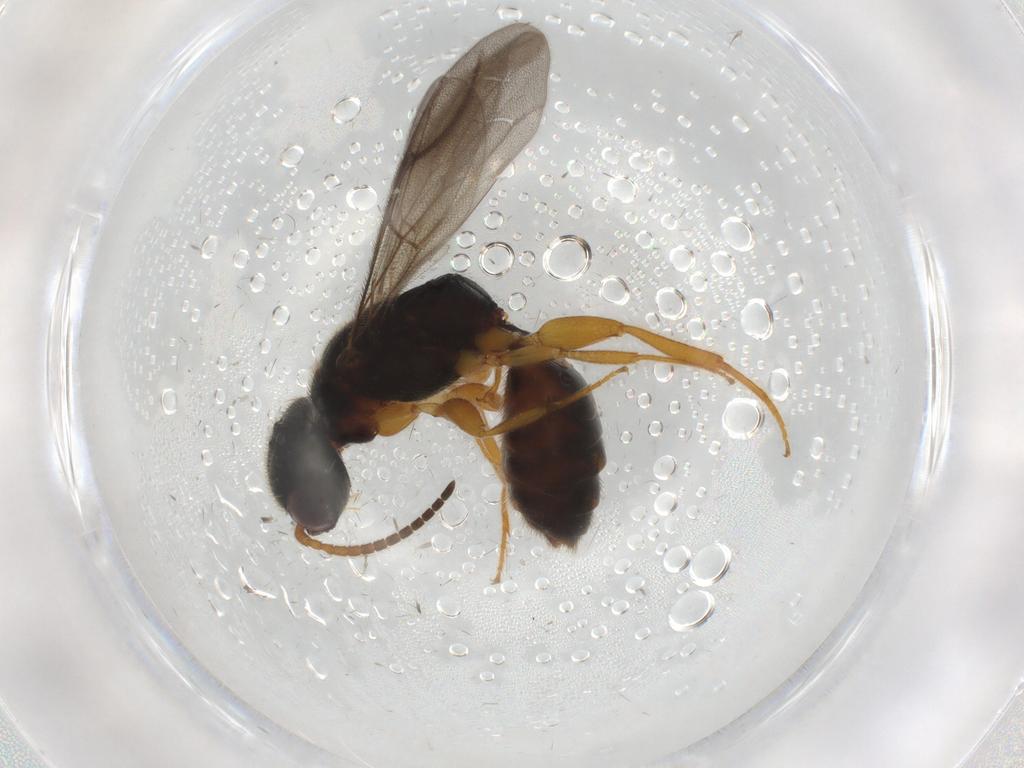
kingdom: Animalia
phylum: Arthropoda
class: Insecta
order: Hymenoptera
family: Bethylidae
